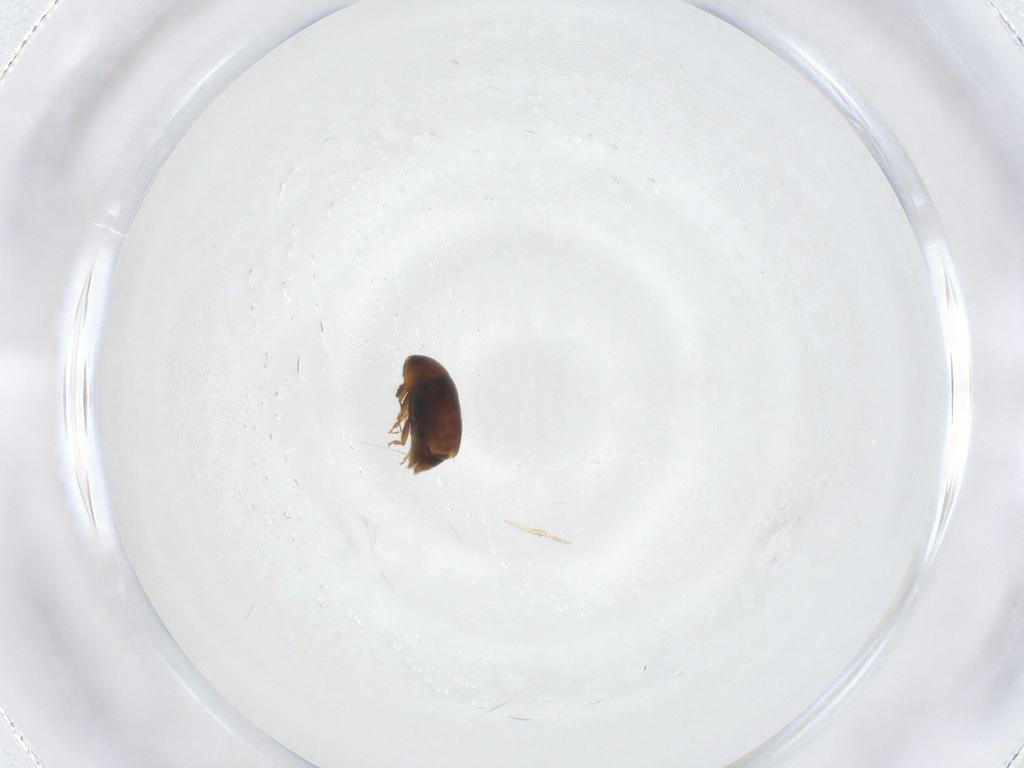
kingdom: Animalia
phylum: Arthropoda
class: Insecta
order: Coleoptera
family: Corylophidae
